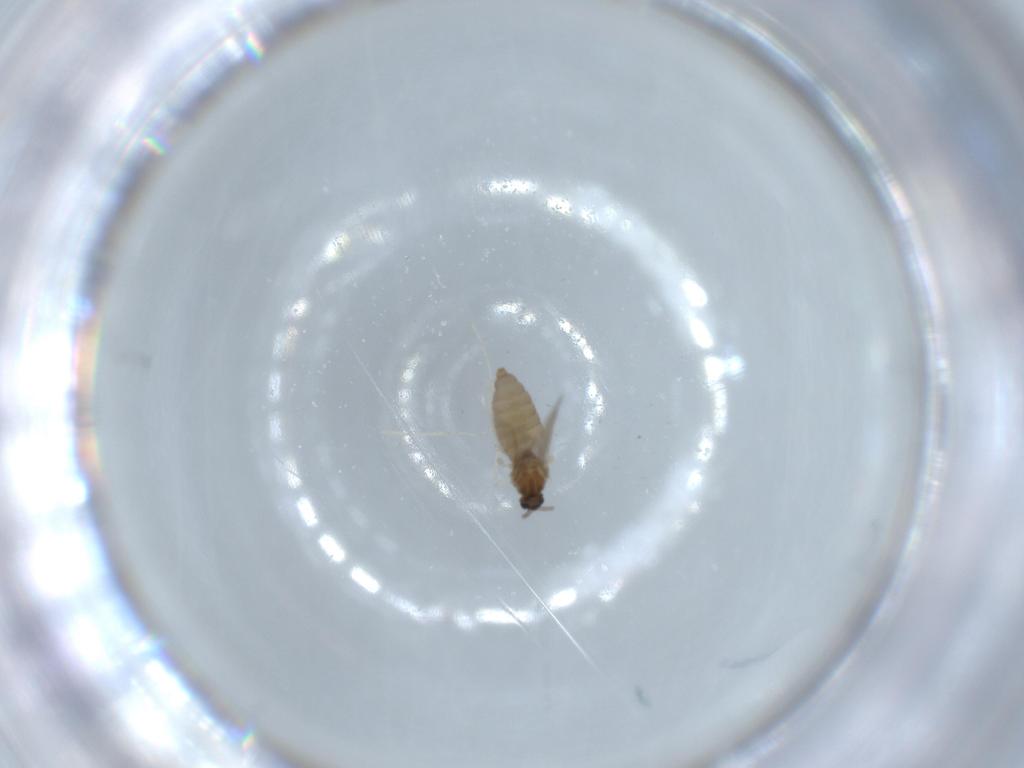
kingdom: Animalia
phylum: Arthropoda
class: Insecta
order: Diptera
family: Cecidomyiidae
